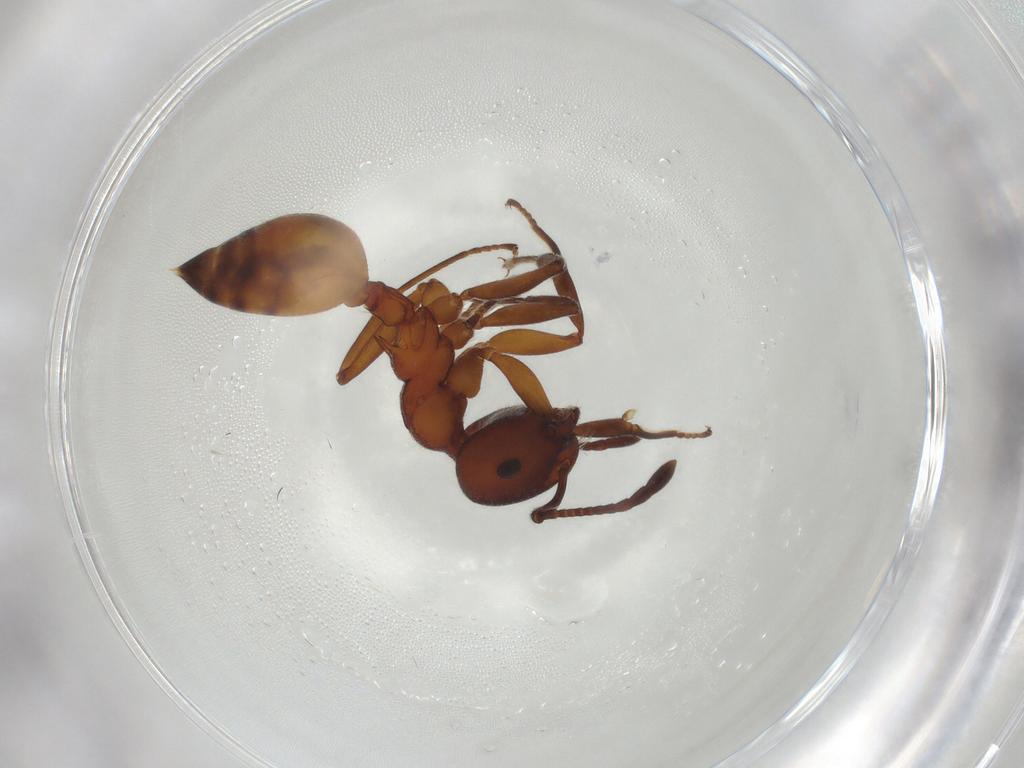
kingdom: Animalia
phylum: Arthropoda
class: Insecta
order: Hymenoptera
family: Formicidae
